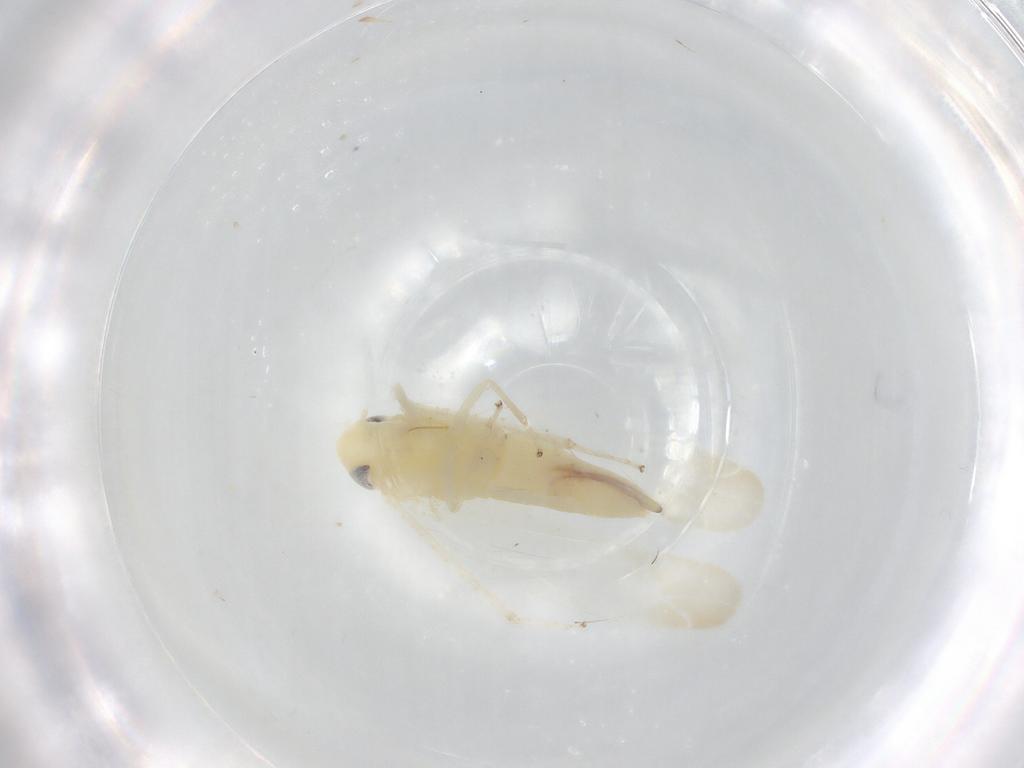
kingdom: Animalia
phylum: Arthropoda
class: Insecta
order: Hemiptera
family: Cicadellidae
